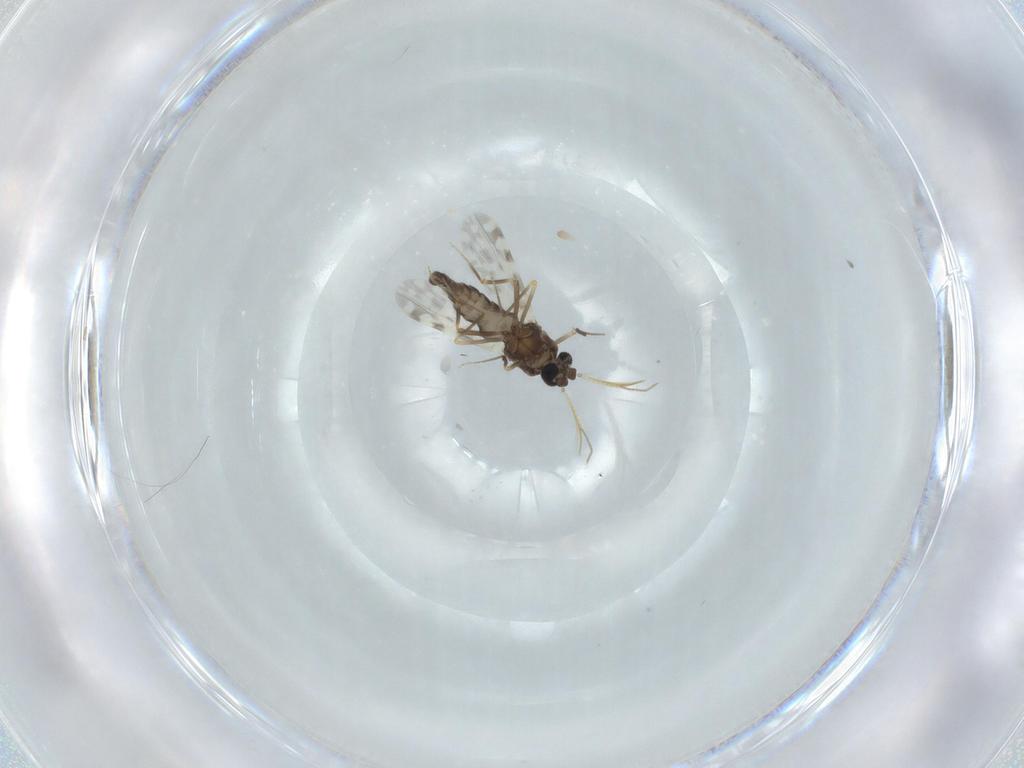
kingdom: Animalia
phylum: Arthropoda
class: Insecta
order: Diptera
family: Ceratopogonidae
